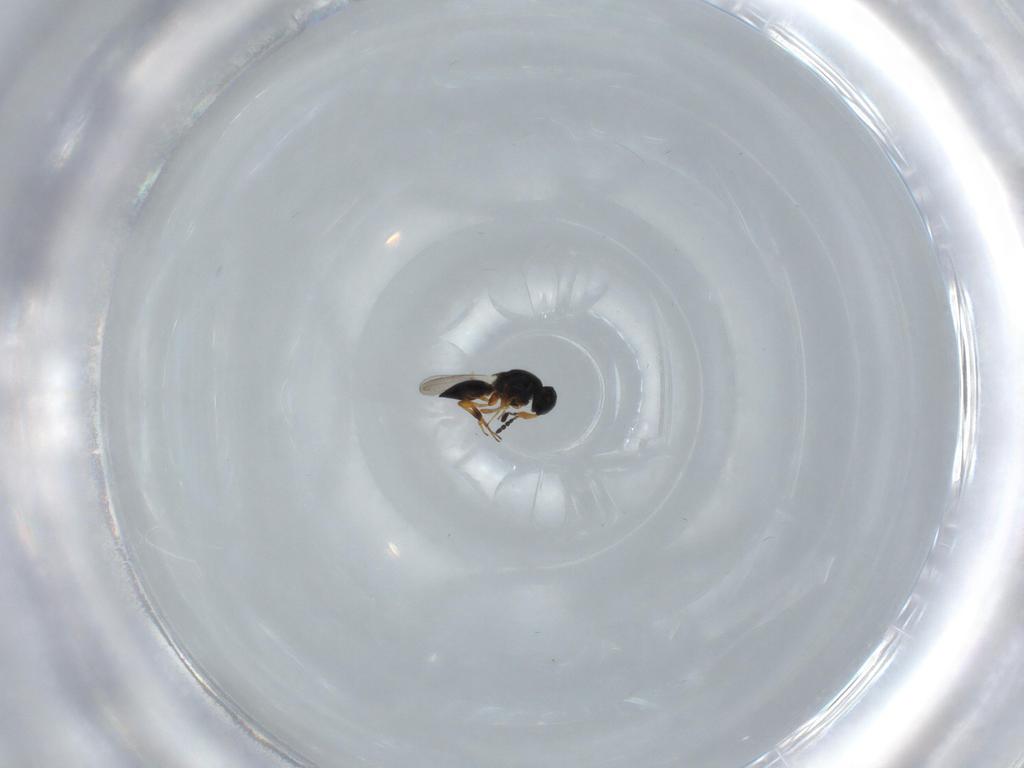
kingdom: Animalia
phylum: Arthropoda
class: Insecta
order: Hymenoptera
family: Platygastridae
